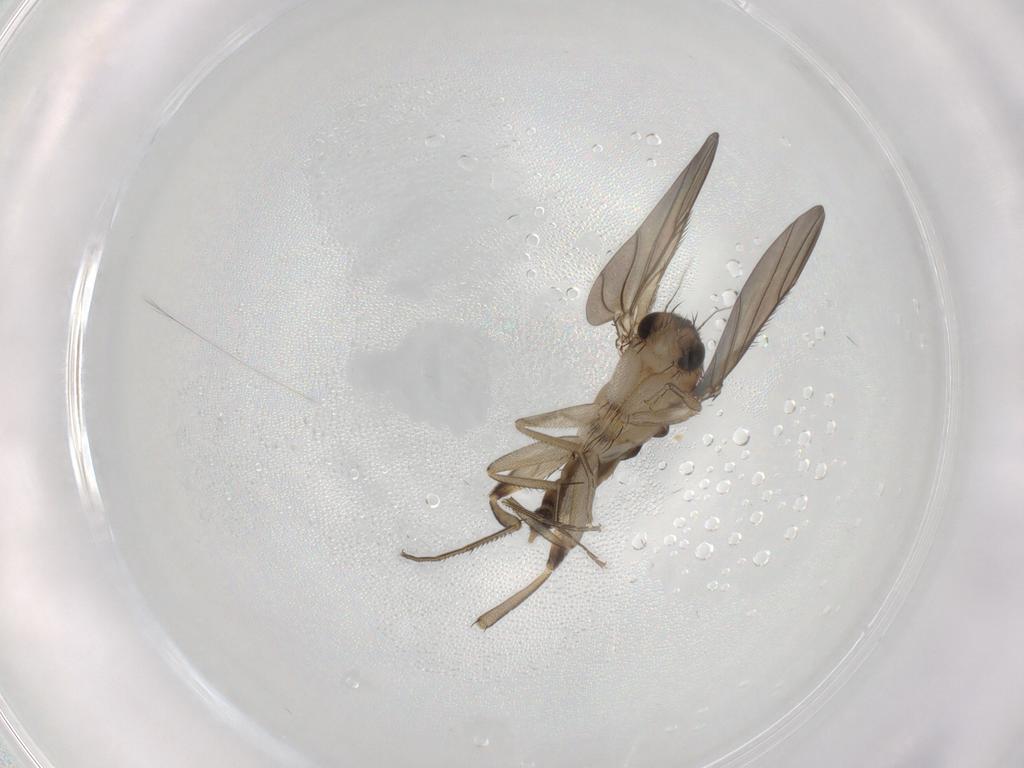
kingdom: Animalia
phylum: Arthropoda
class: Insecta
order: Diptera
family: Phoridae
